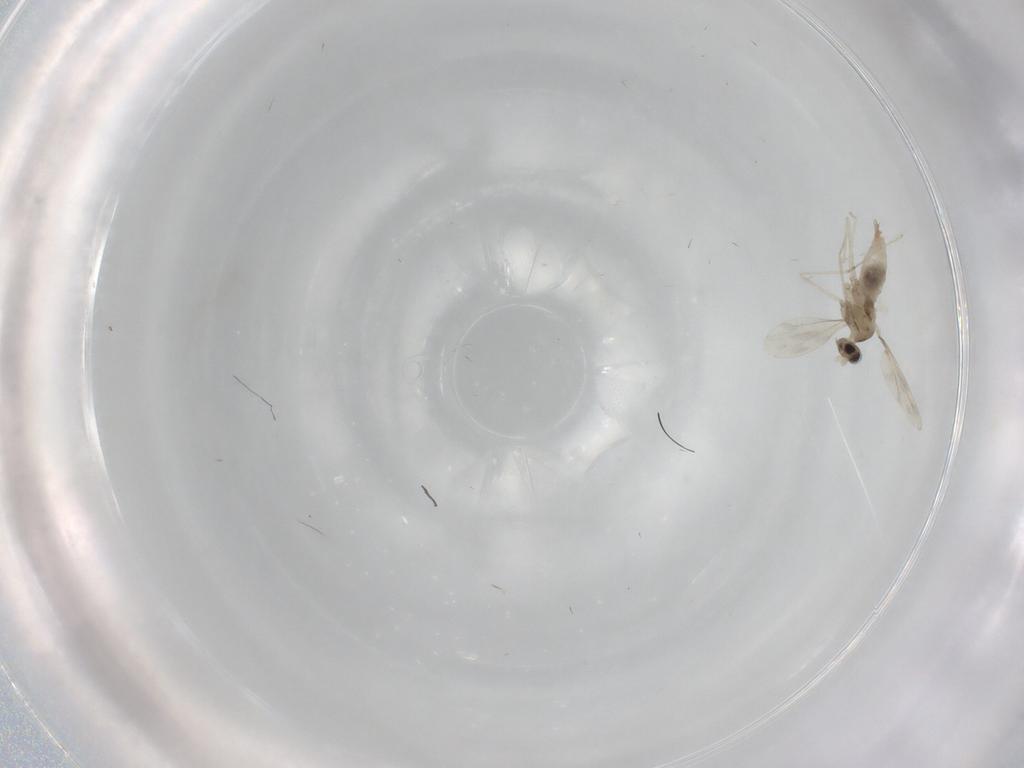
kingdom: Animalia
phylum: Arthropoda
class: Insecta
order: Diptera
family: Cecidomyiidae
